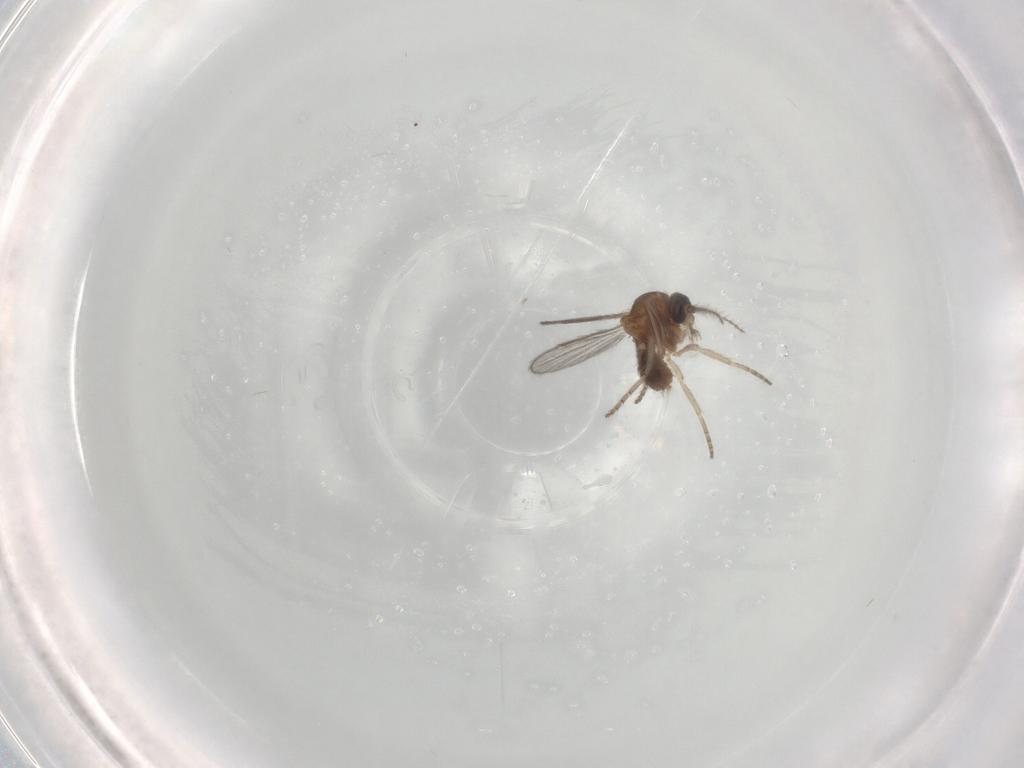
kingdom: Animalia
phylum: Arthropoda
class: Insecta
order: Diptera
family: Ceratopogonidae
